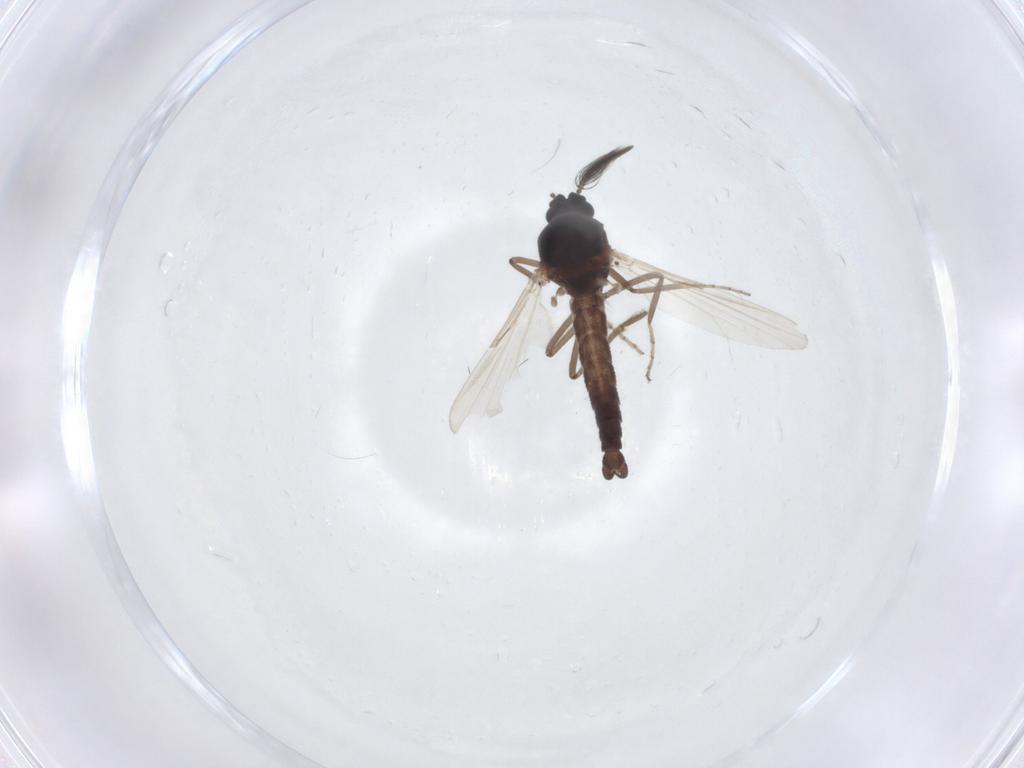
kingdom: Animalia
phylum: Arthropoda
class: Insecta
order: Diptera
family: Ceratopogonidae
